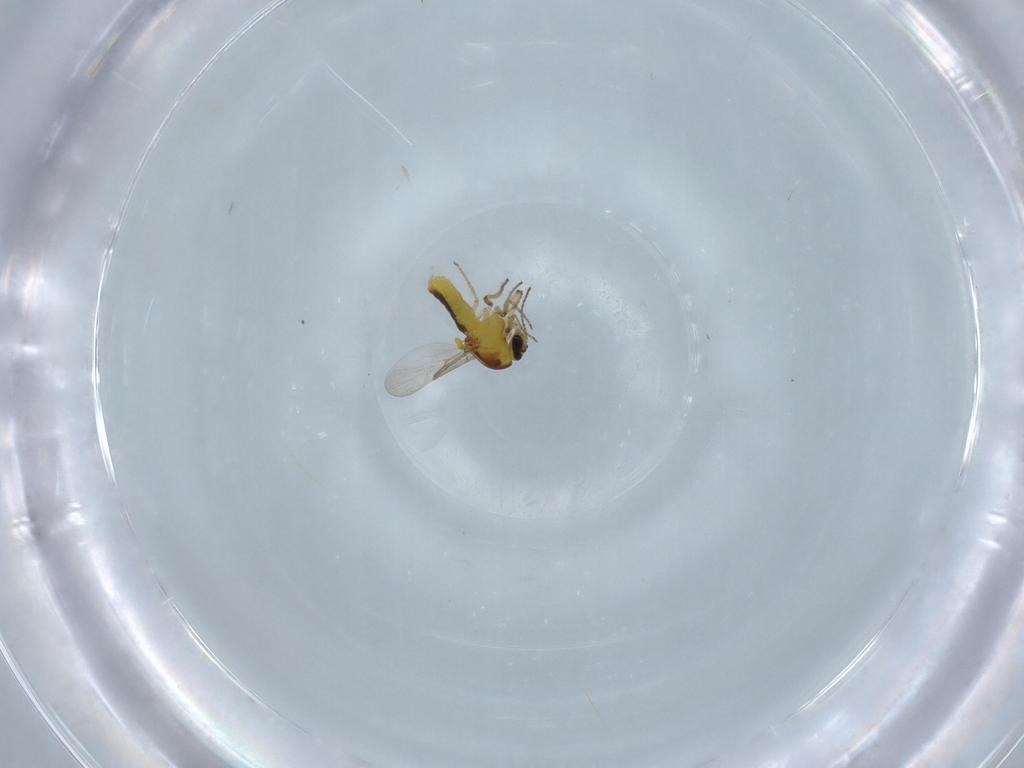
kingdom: Animalia
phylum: Arthropoda
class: Insecta
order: Diptera
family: Ceratopogonidae
